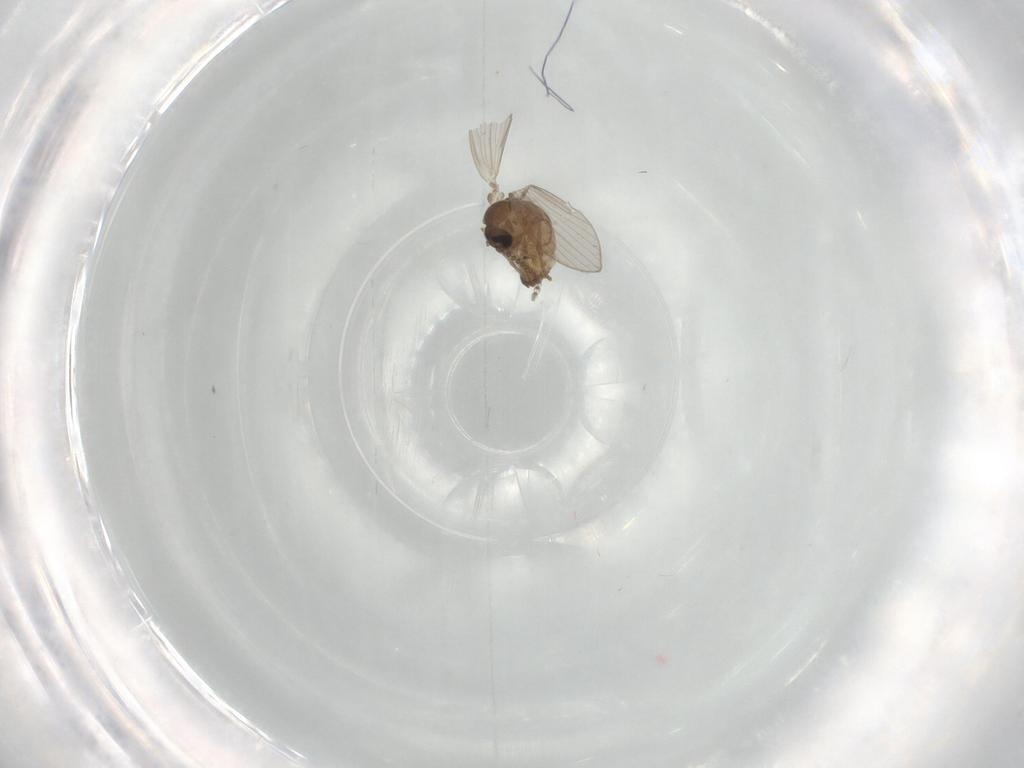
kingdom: Animalia
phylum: Arthropoda
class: Insecta
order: Diptera
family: Psychodidae
